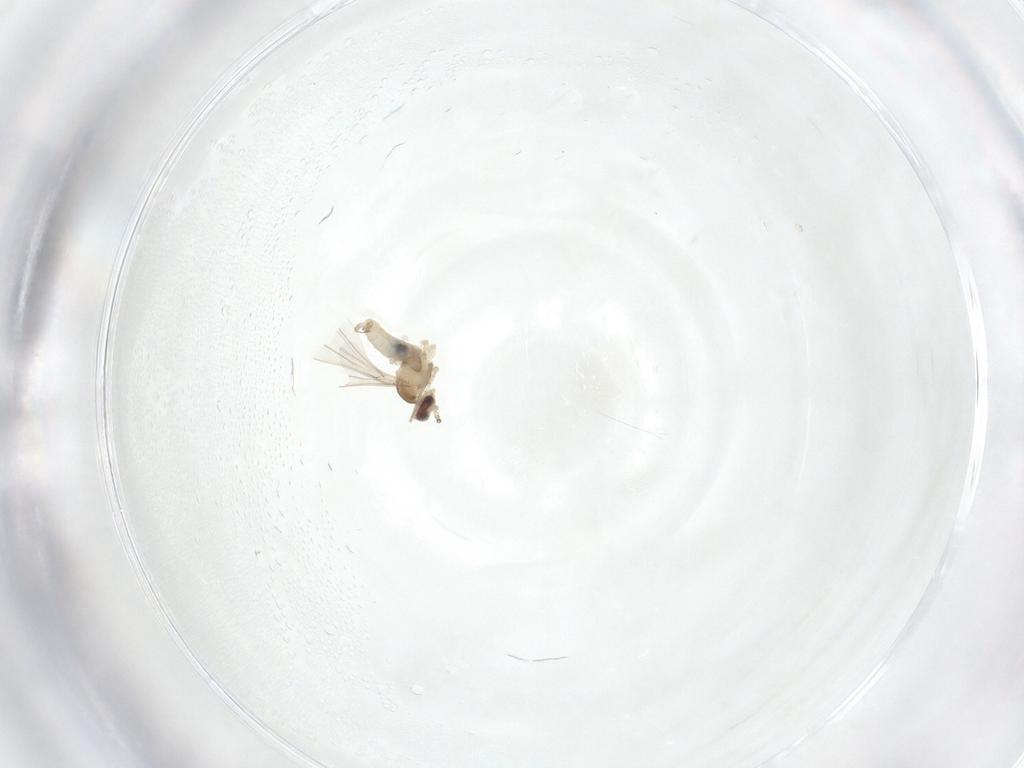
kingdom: Animalia
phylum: Arthropoda
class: Insecta
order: Diptera
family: Cecidomyiidae
